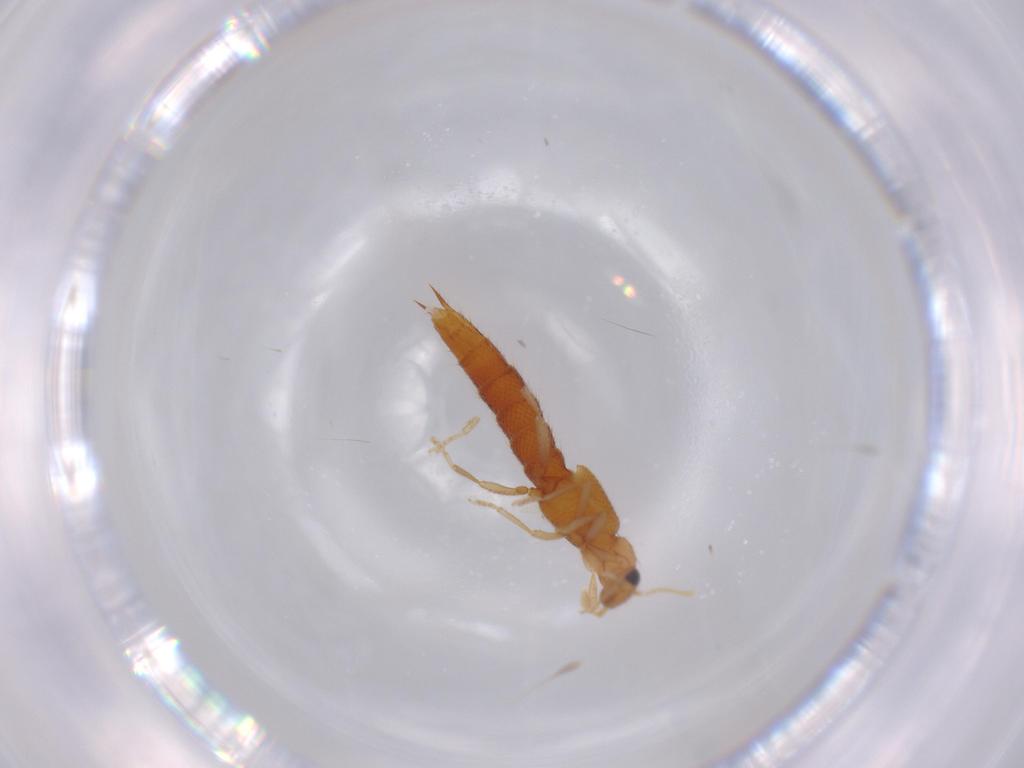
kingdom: Animalia
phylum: Arthropoda
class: Insecta
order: Coleoptera
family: Staphylinidae
